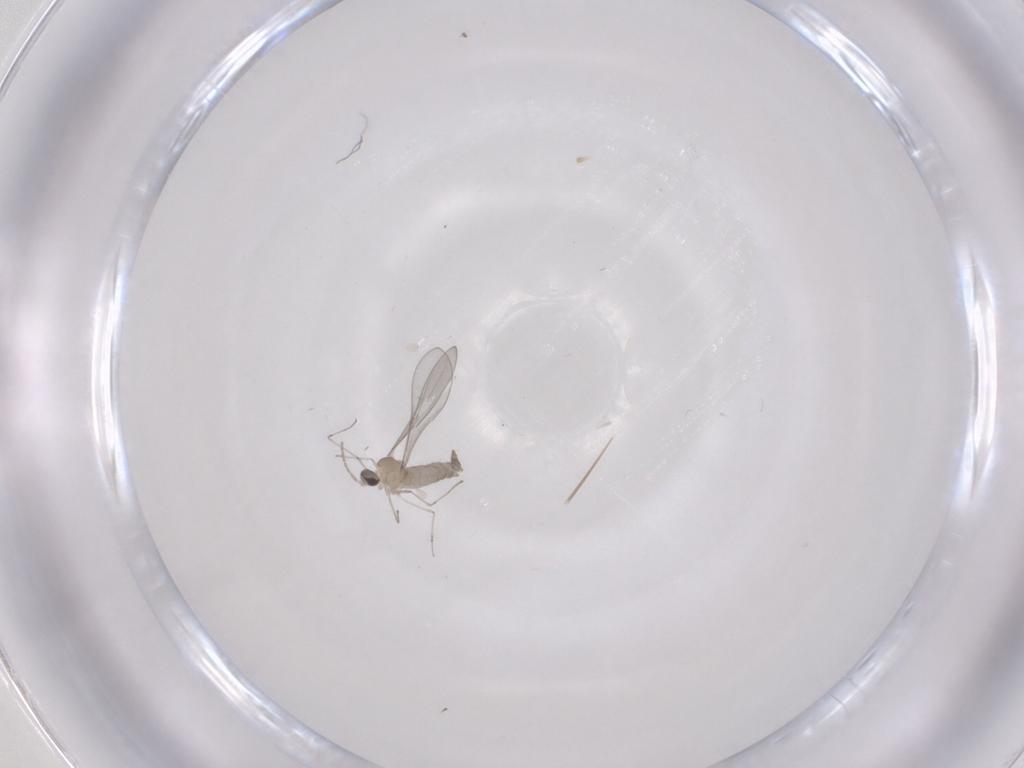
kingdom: Animalia
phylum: Arthropoda
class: Insecta
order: Diptera
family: Cecidomyiidae
